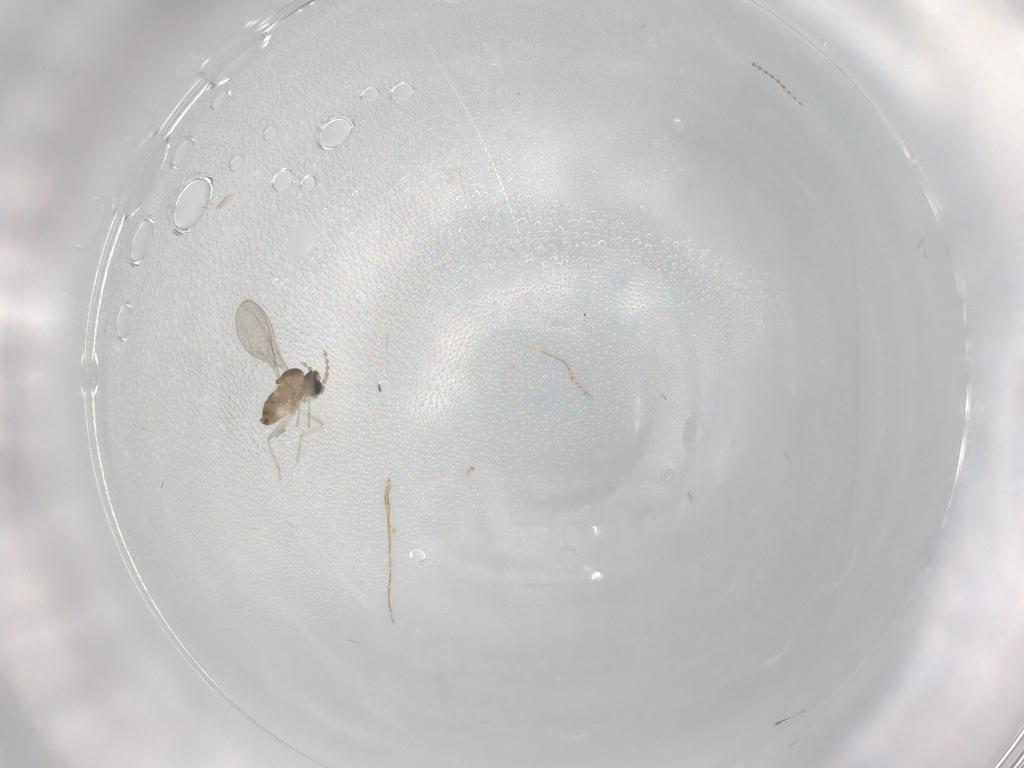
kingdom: Animalia
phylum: Arthropoda
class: Insecta
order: Diptera
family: Cecidomyiidae
